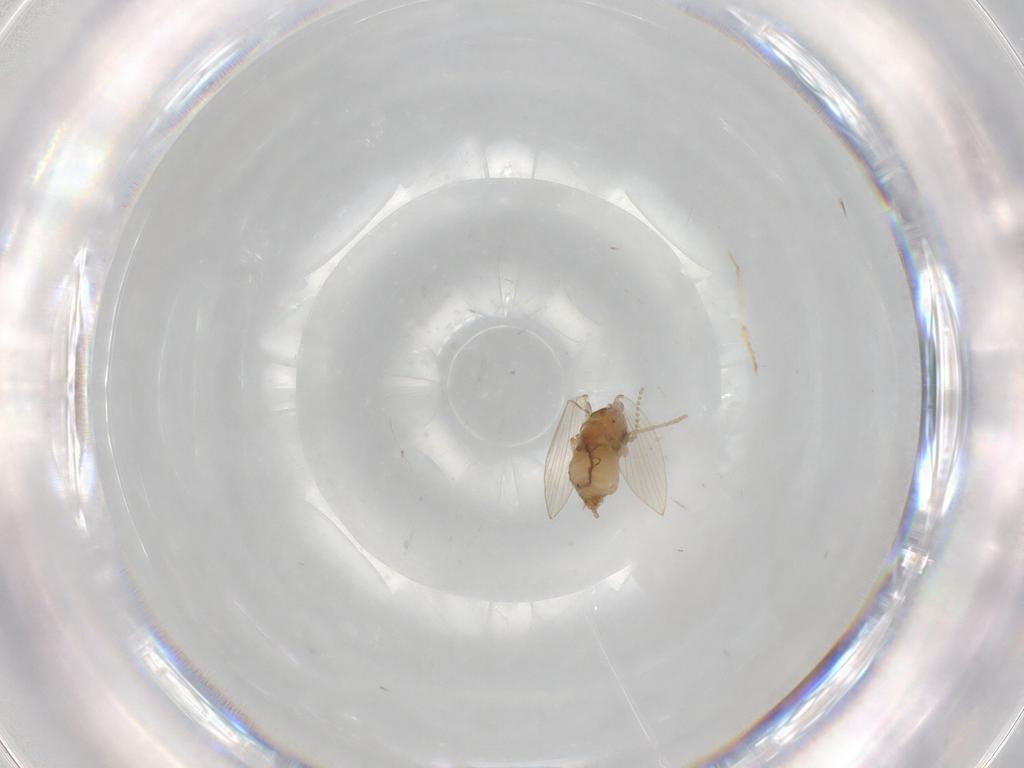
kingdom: Animalia
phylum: Arthropoda
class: Insecta
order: Diptera
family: Psychodidae
